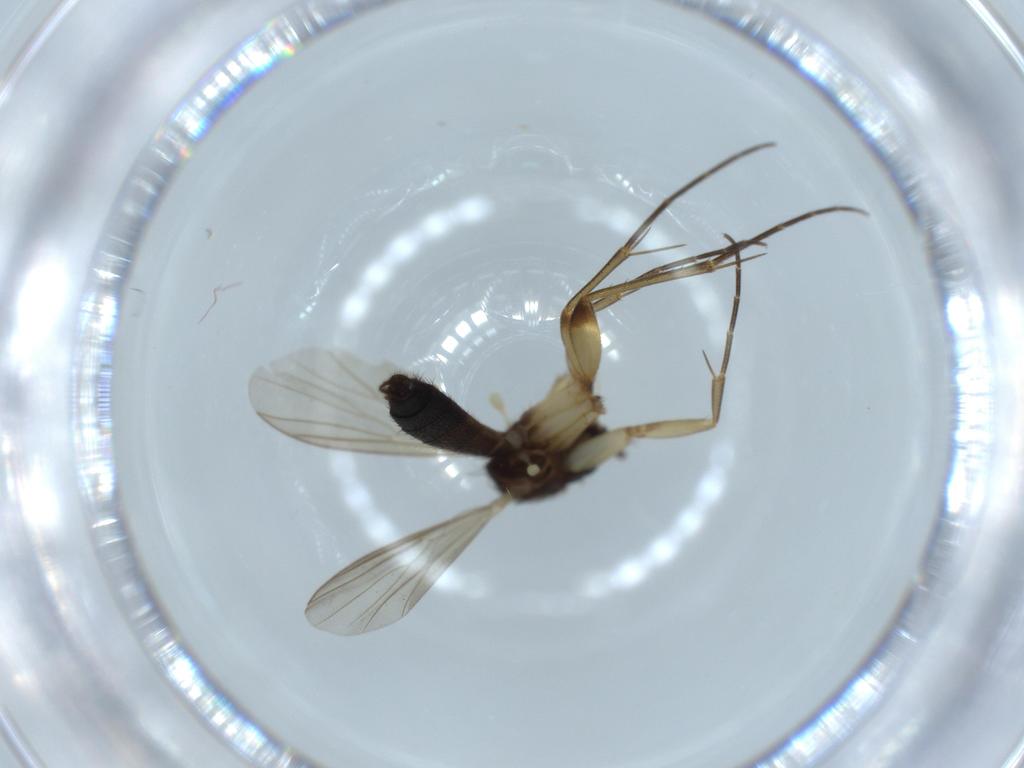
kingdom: Animalia
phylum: Arthropoda
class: Insecta
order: Diptera
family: Mycetophilidae
